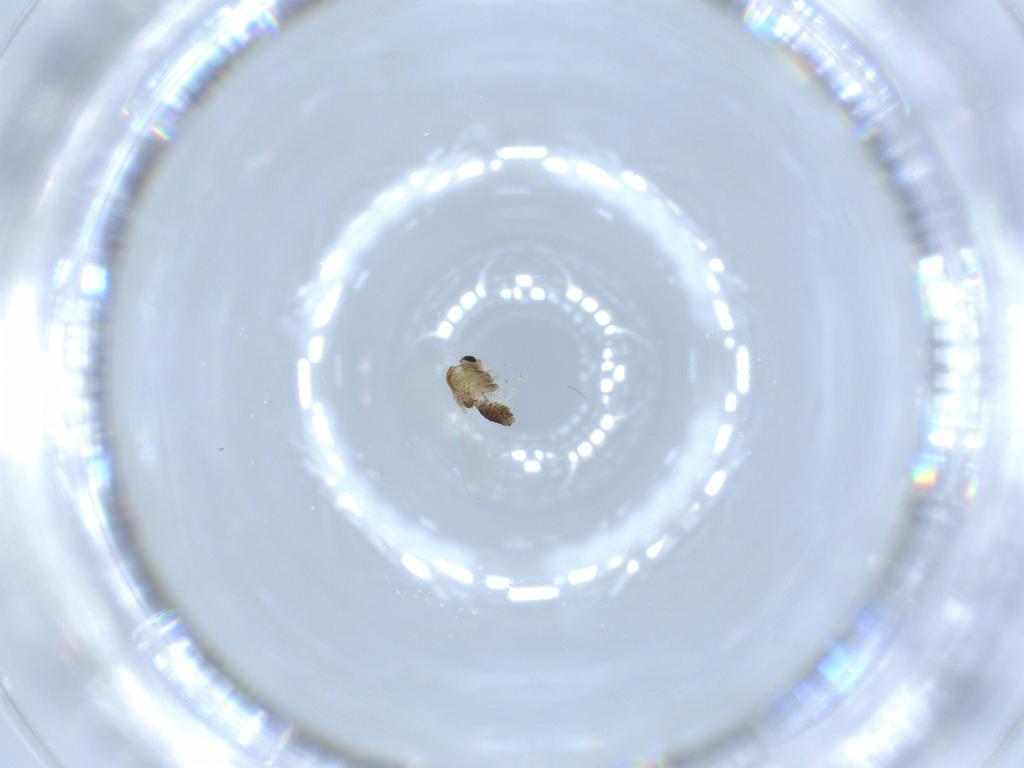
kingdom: Animalia
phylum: Arthropoda
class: Insecta
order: Diptera
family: Chironomidae
